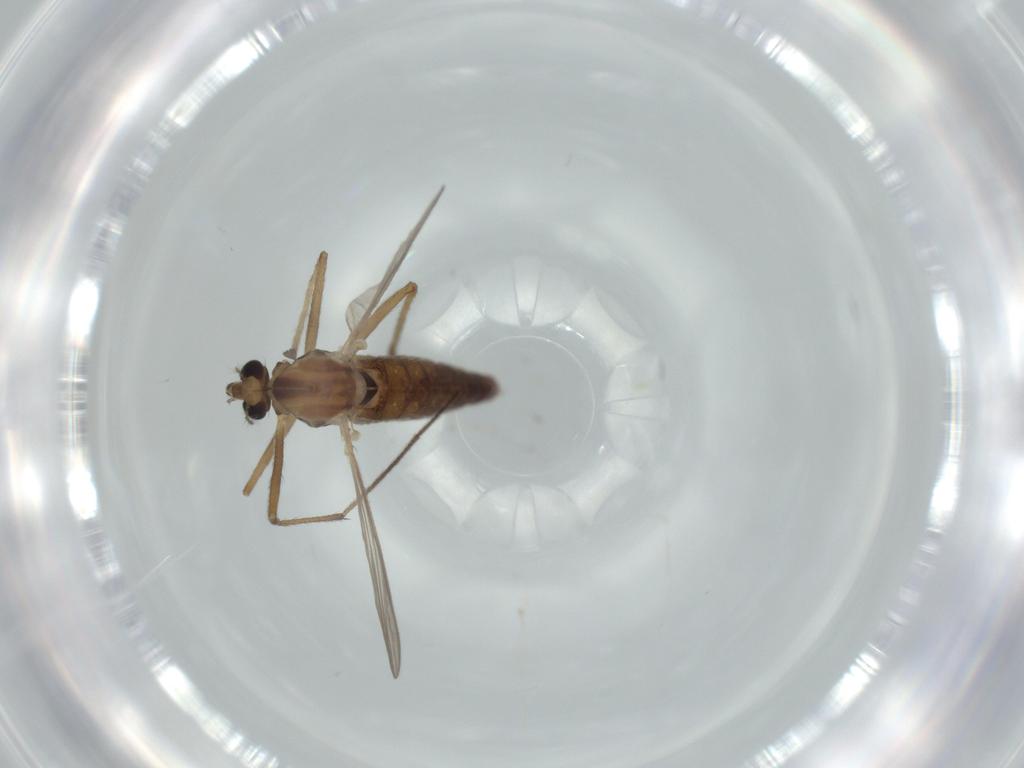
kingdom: Animalia
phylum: Arthropoda
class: Insecta
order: Diptera
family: Chironomidae
